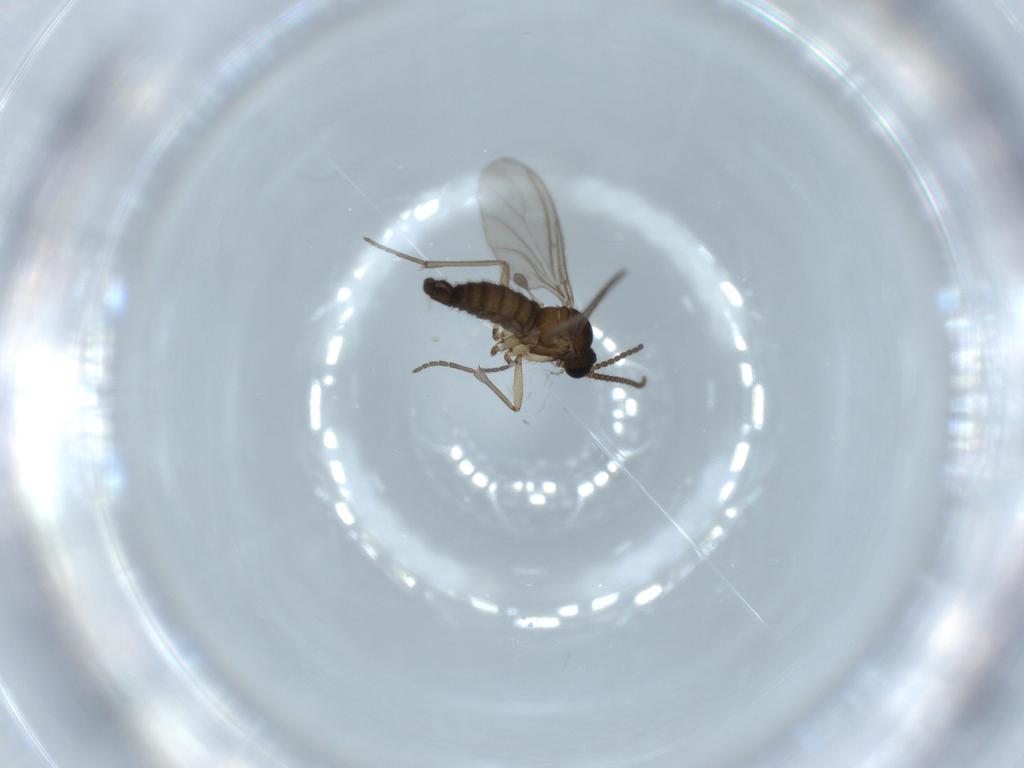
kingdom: Animalia
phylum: Arthropoda
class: Insecta
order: Diptera
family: Sciaridae
